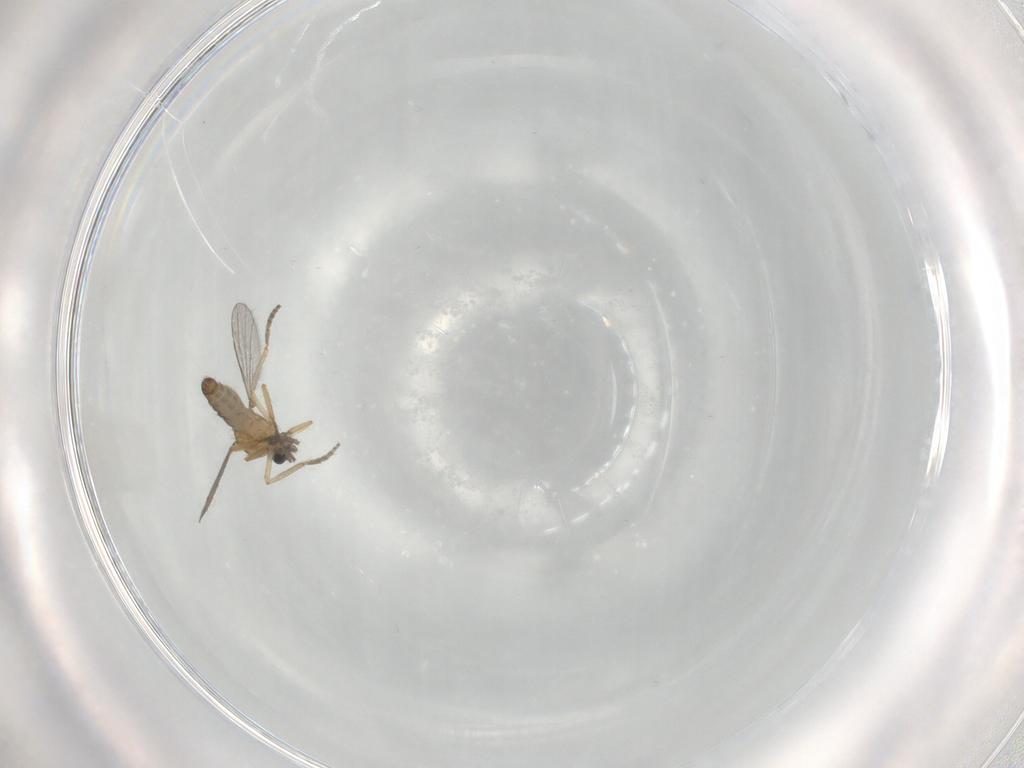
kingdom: Animalia
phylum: Arthropoda
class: Insecta
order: Diptera
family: Ceratopogonidae
